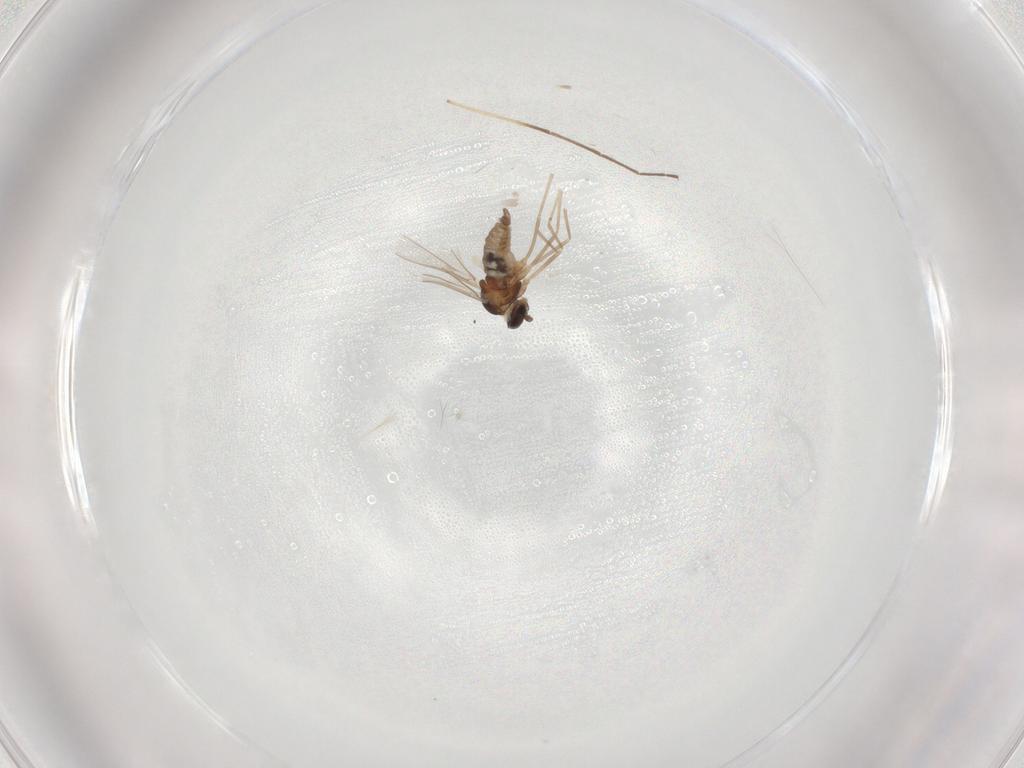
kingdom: Animalia
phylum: Arthropoda
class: Insecta
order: Diptera
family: Cecidomyiidae
